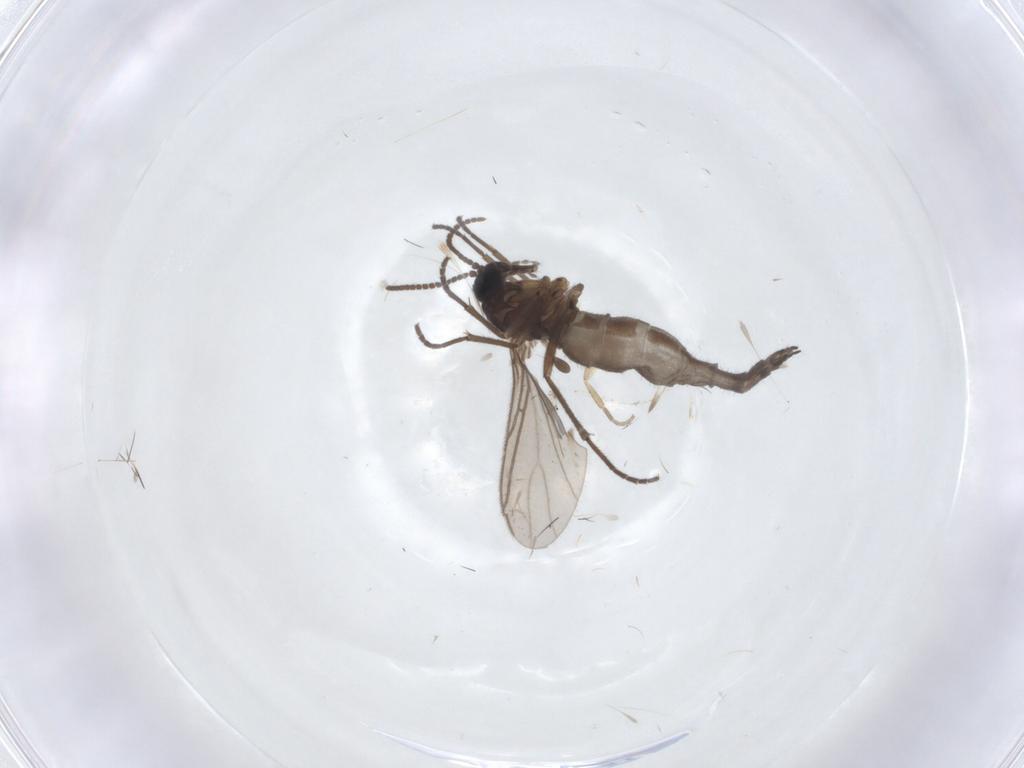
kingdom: Animalia
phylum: Arthropoda
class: Insecta
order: Diptera
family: Sciaridae
